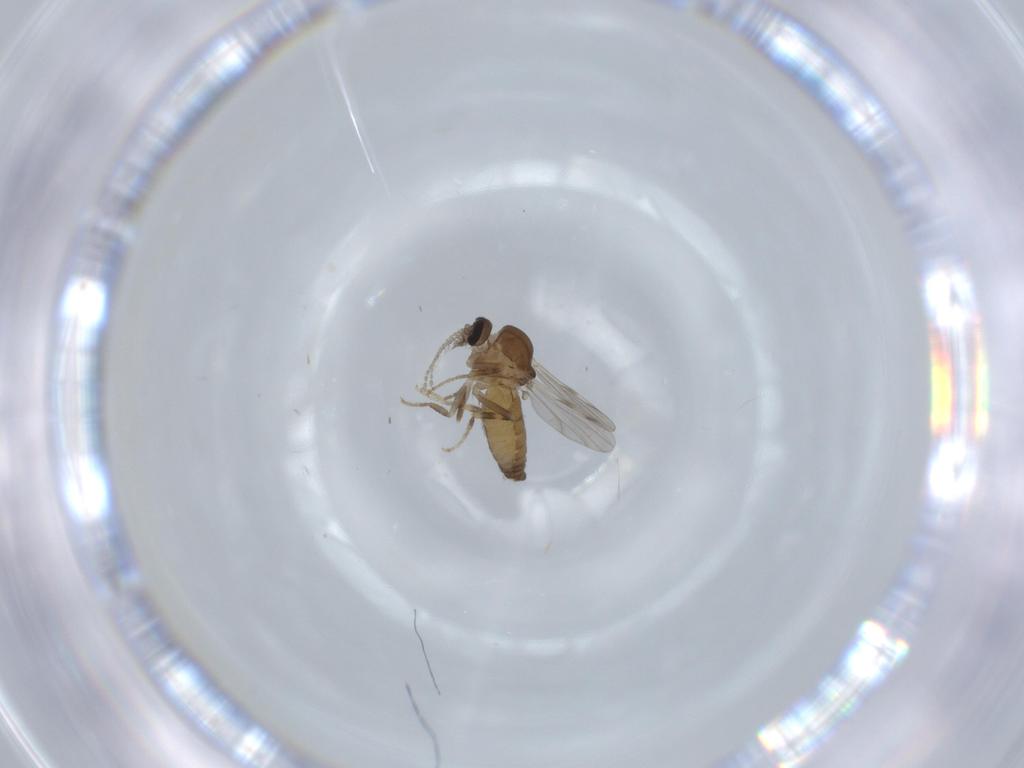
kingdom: Animalia
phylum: Arthropoda
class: Insecta
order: Diptera
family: Ceratopogonidae
